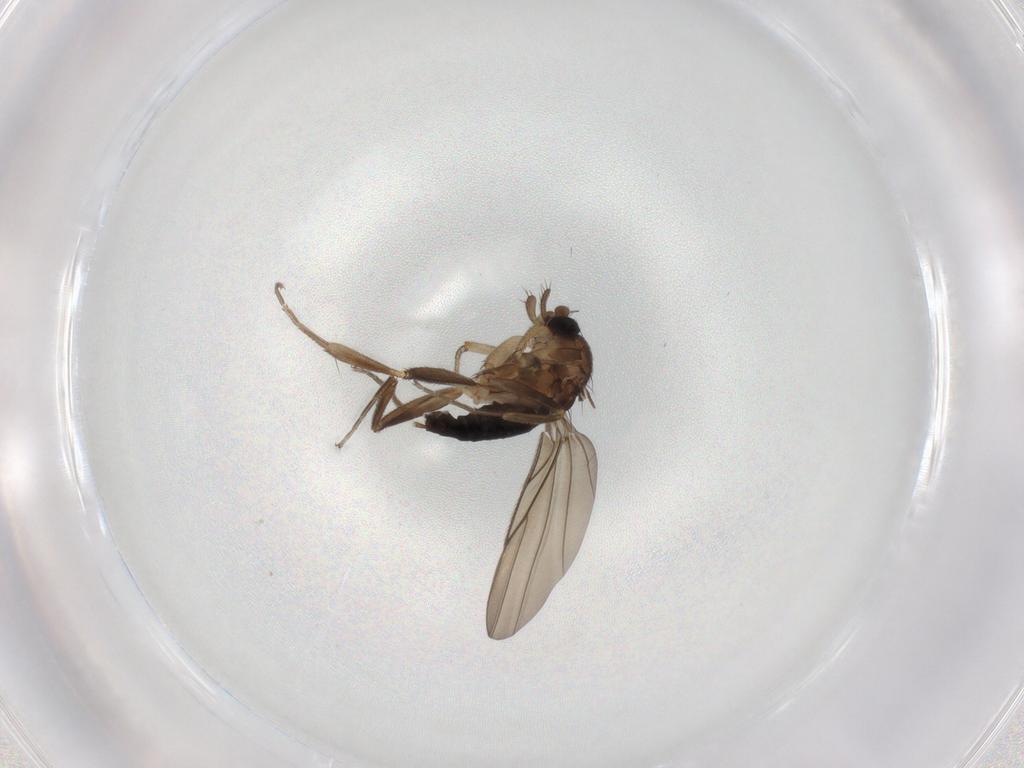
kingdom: Animalia
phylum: Arthropoda
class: Insecta
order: Diptera
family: Phoridae
